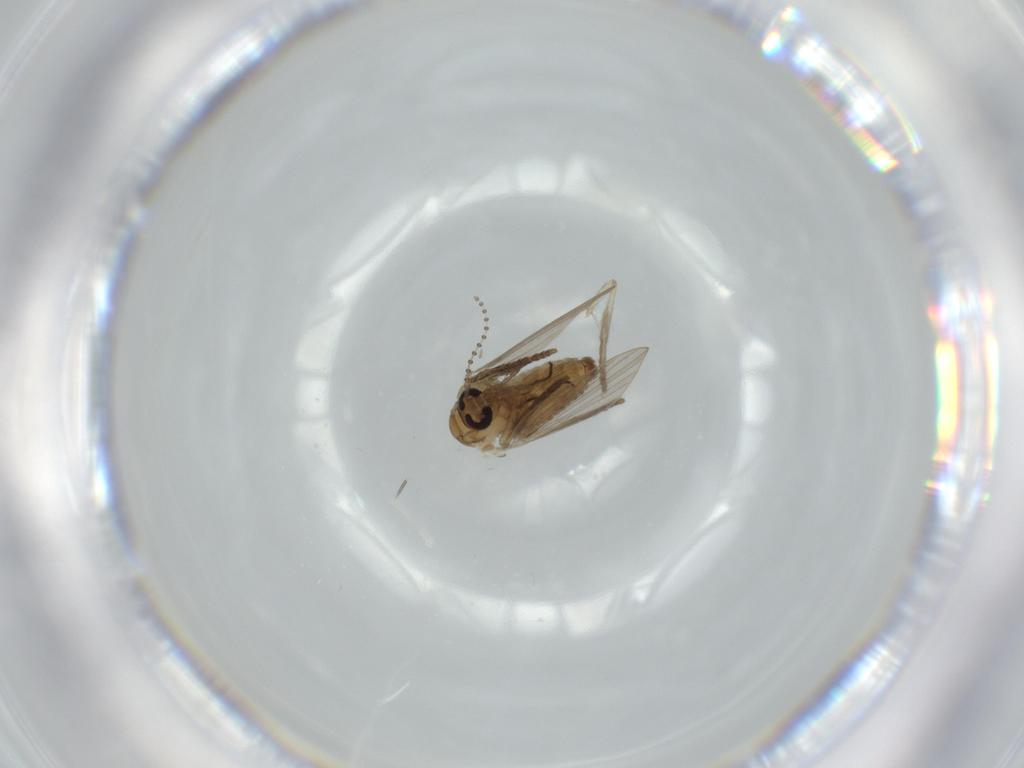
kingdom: Animalia
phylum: Arthropoda
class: Insecta
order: Diptera
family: Psychodidae
